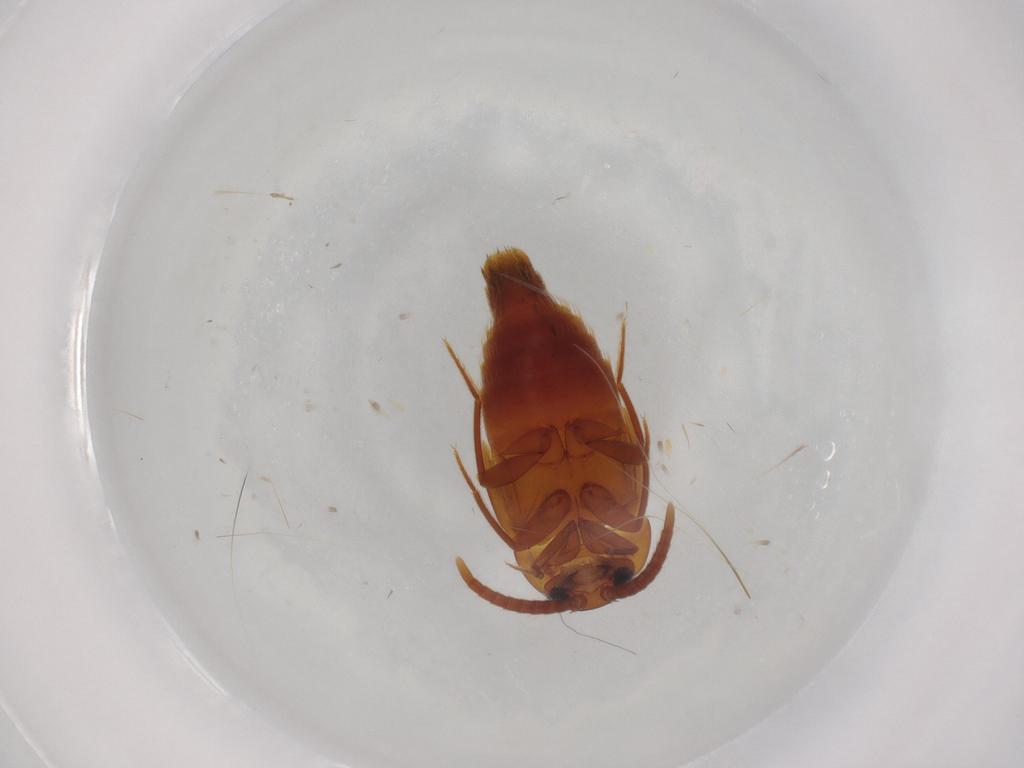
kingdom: Animalia
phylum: Arthropoda
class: Insecta
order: Coleoptera
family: Staphylinidae
